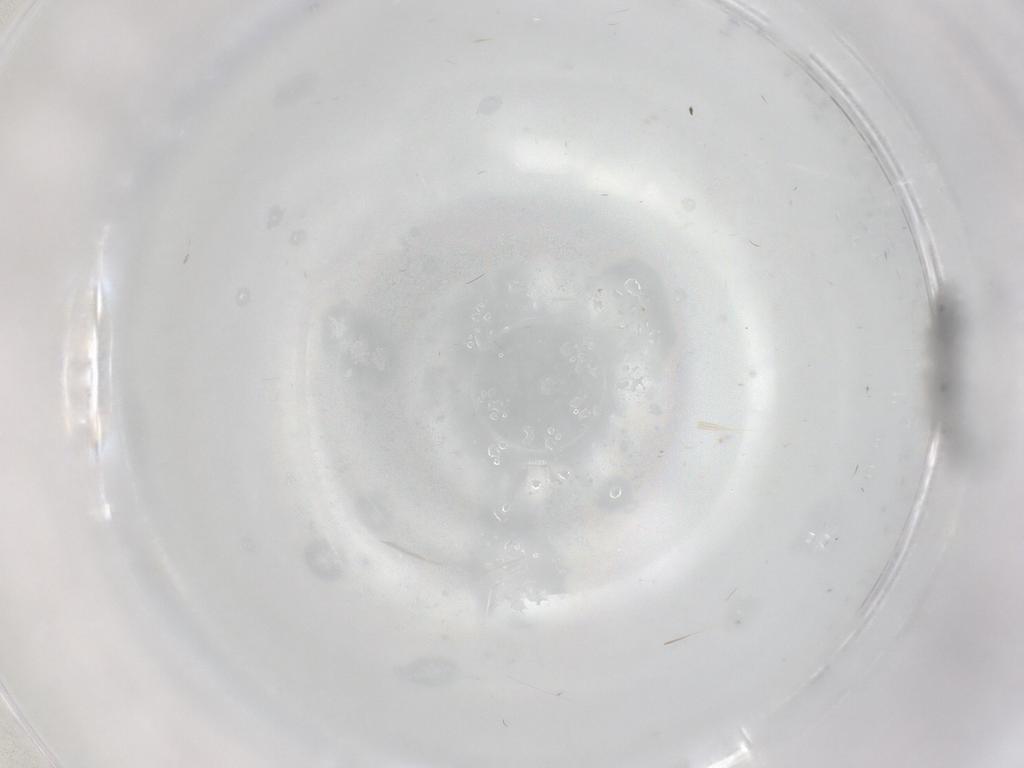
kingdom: Animalia
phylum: Arthropoda
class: Insecta
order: Diptera
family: Sciaridae
